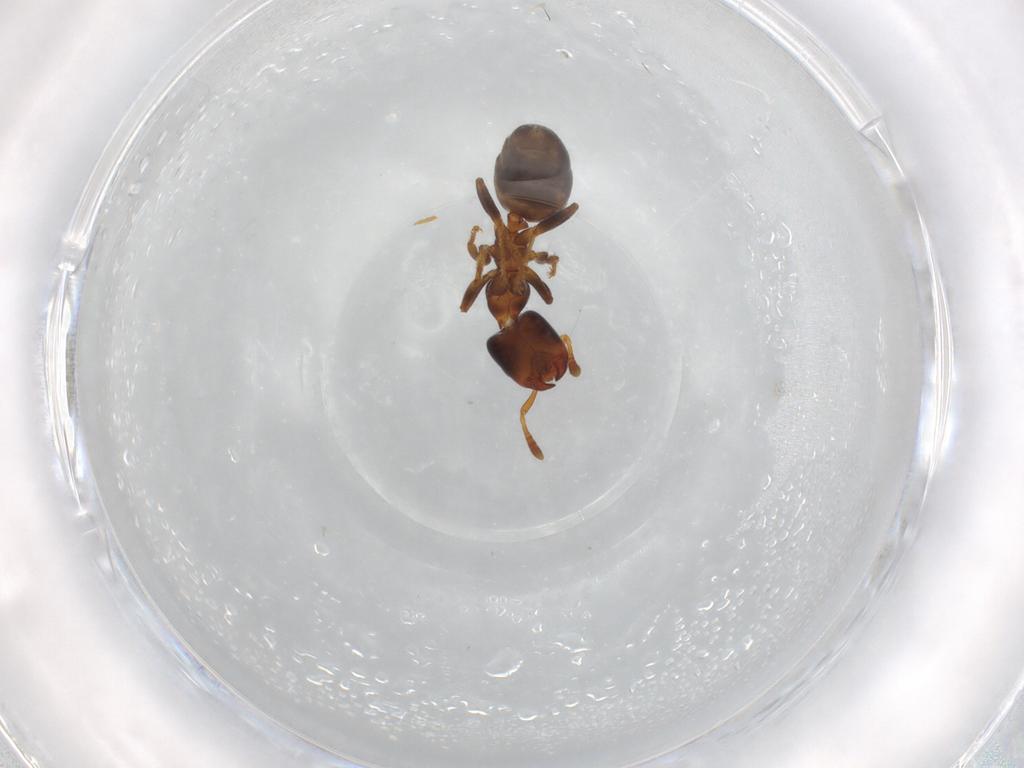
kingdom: Animalia
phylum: Arthropoda
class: Insecta
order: Hymenoptera
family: Formicidae
